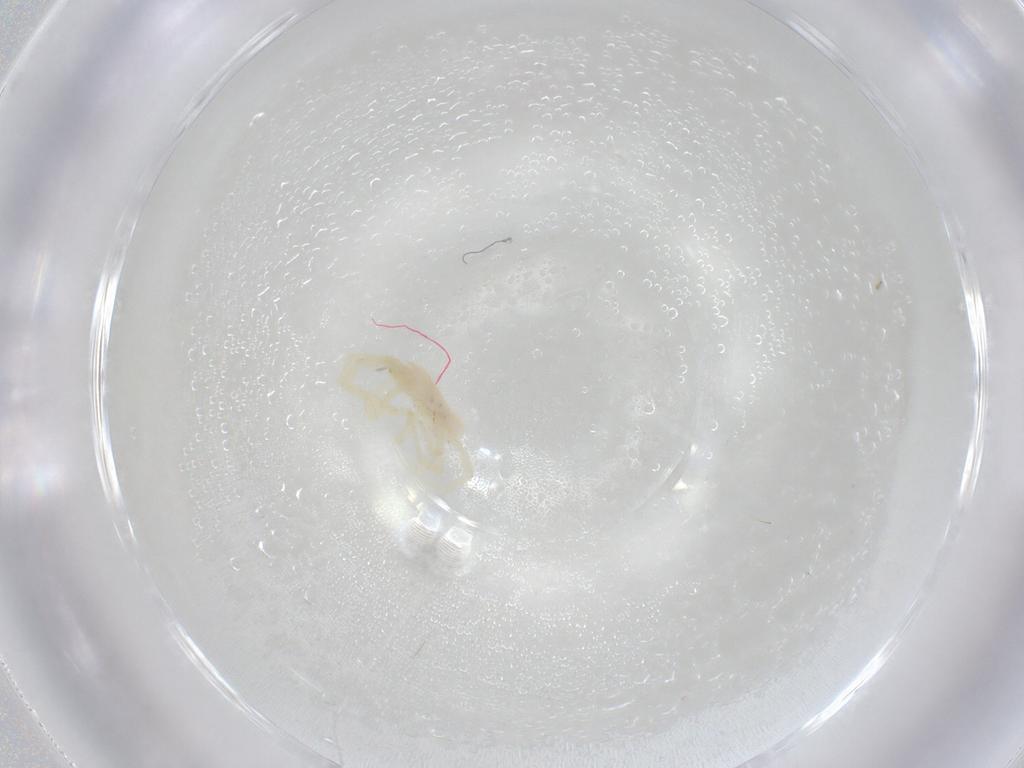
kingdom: Animalia
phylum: Arthropoda
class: Arachnida
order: Trombidiformes
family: Erythraeidae
